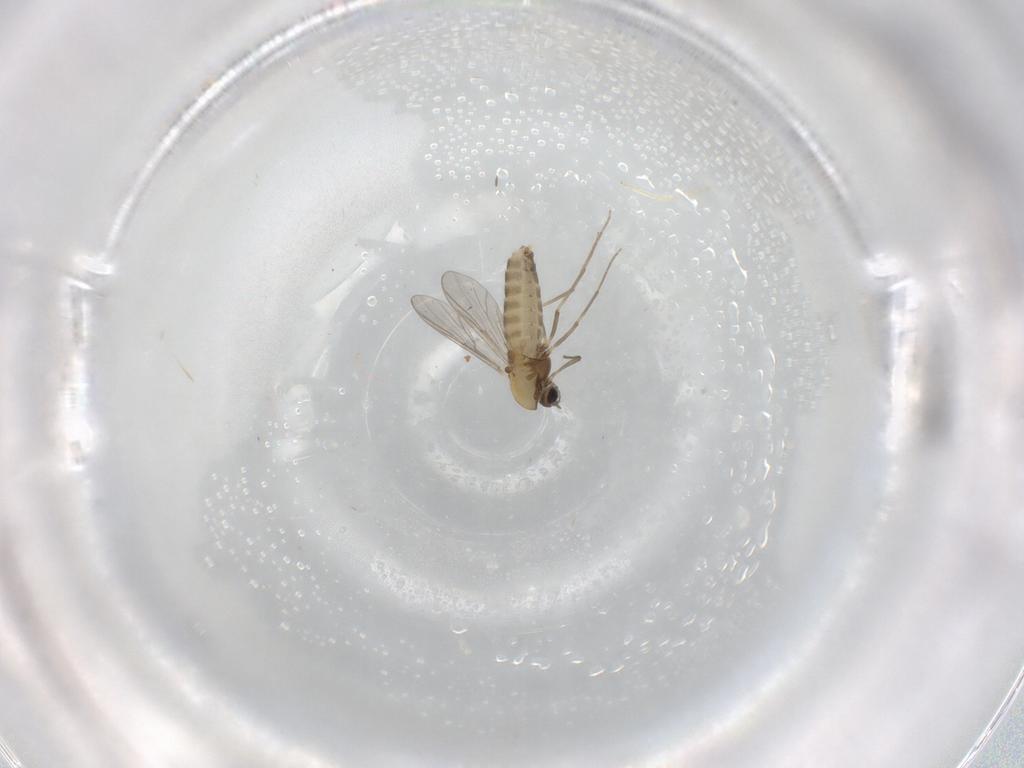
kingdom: Animalia
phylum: Arthropoda
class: Insecta
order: Diptera
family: Chironomidae
